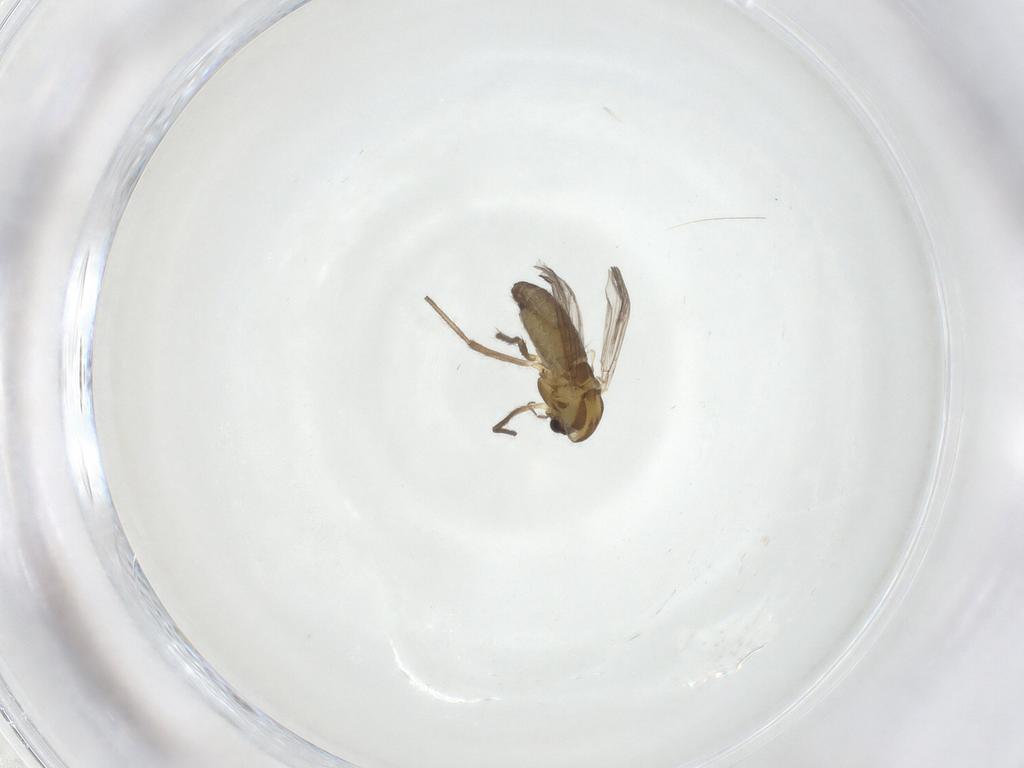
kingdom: Animalia
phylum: Arthropoda
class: Insecta
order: Diptera
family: Chironomidae
